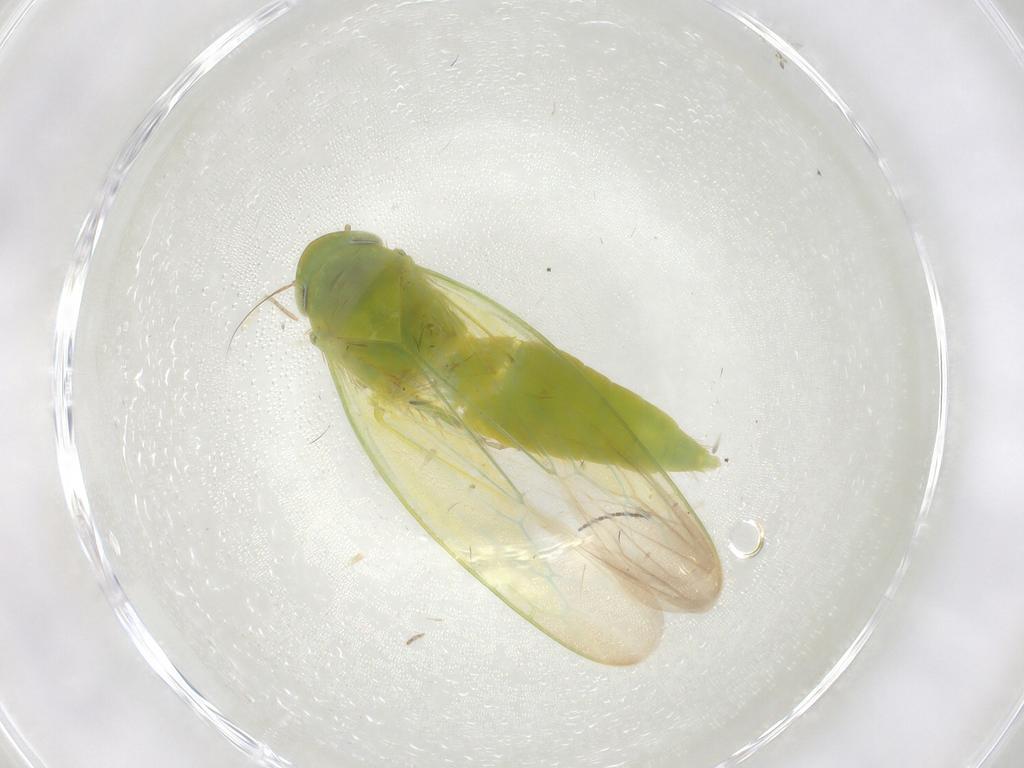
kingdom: Animalia
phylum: Arthropoda
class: Insecta
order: Hemiptera
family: Cicadellidae
